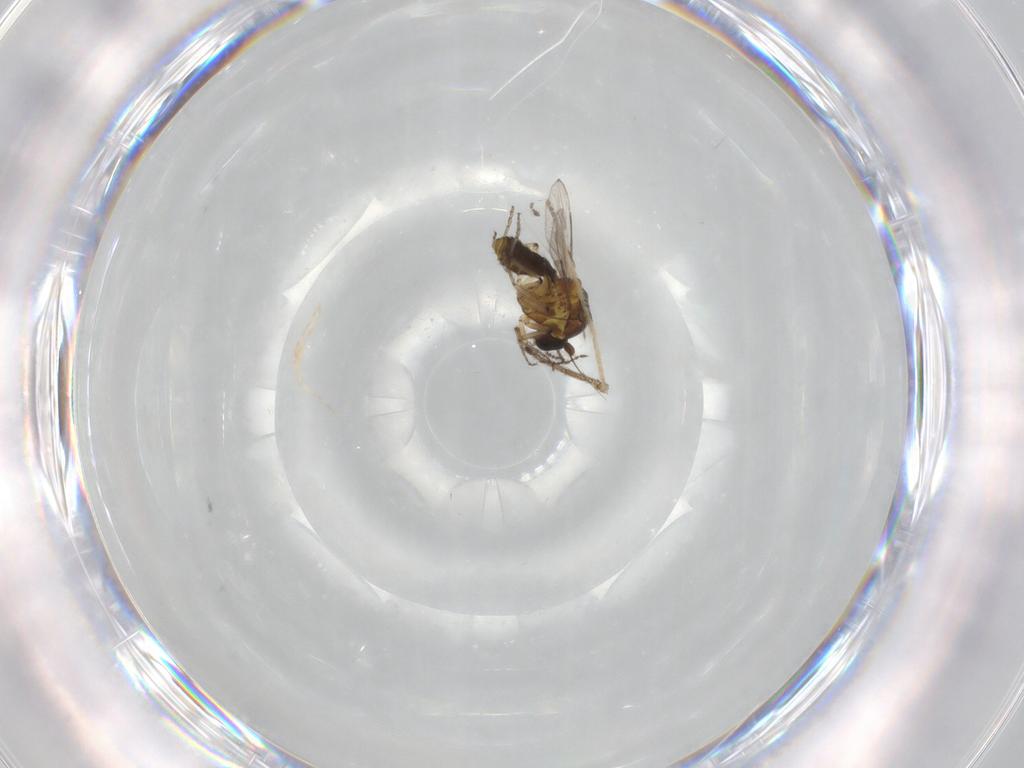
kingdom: Animalia
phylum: Arthropoda
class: Insecta
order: Diptera
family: Ceratopogonidae
